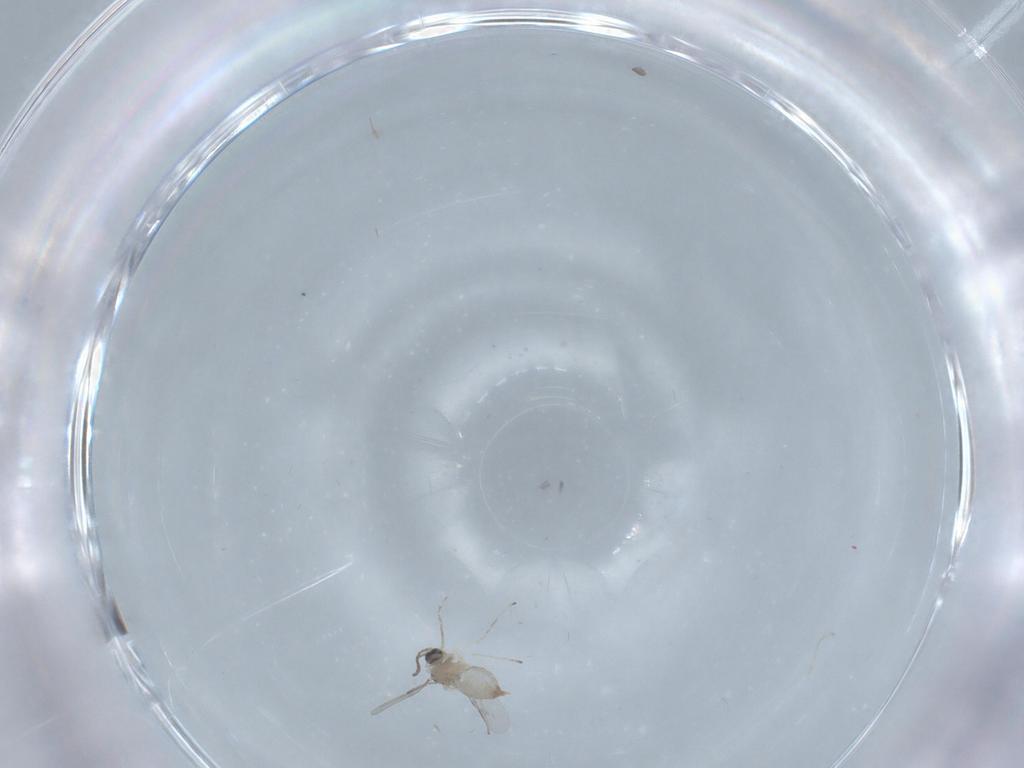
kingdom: Animalia
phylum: Arthropoda
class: Insecta
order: Diptera
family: Cecidomyiidae
